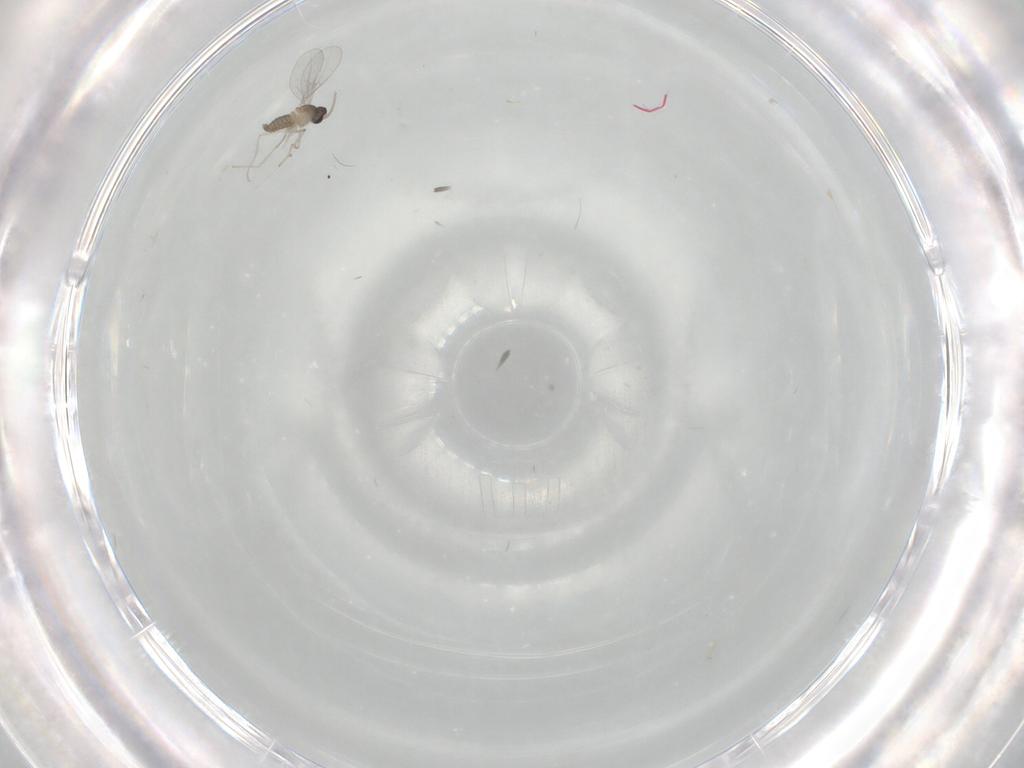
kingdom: Animalia
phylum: Arthropoda
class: Insecta
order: Diptera
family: Cecidomyiidae
